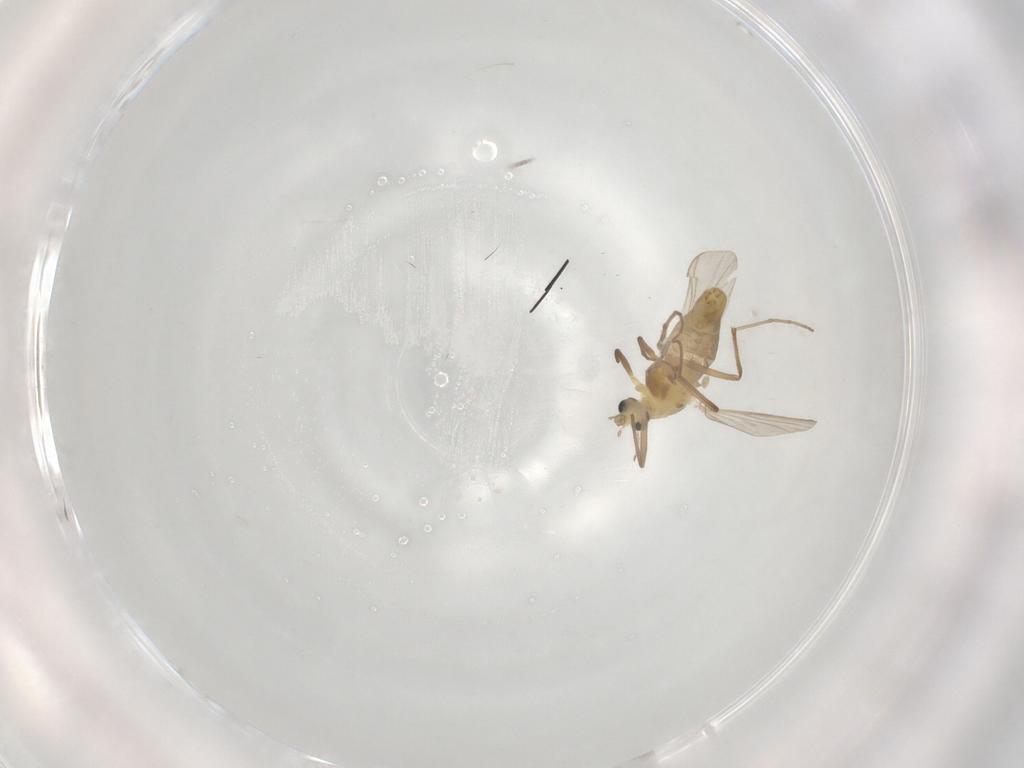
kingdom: Animalia
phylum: Arthropoda
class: Insecta
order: Diptera
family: Cecidomyiidae
